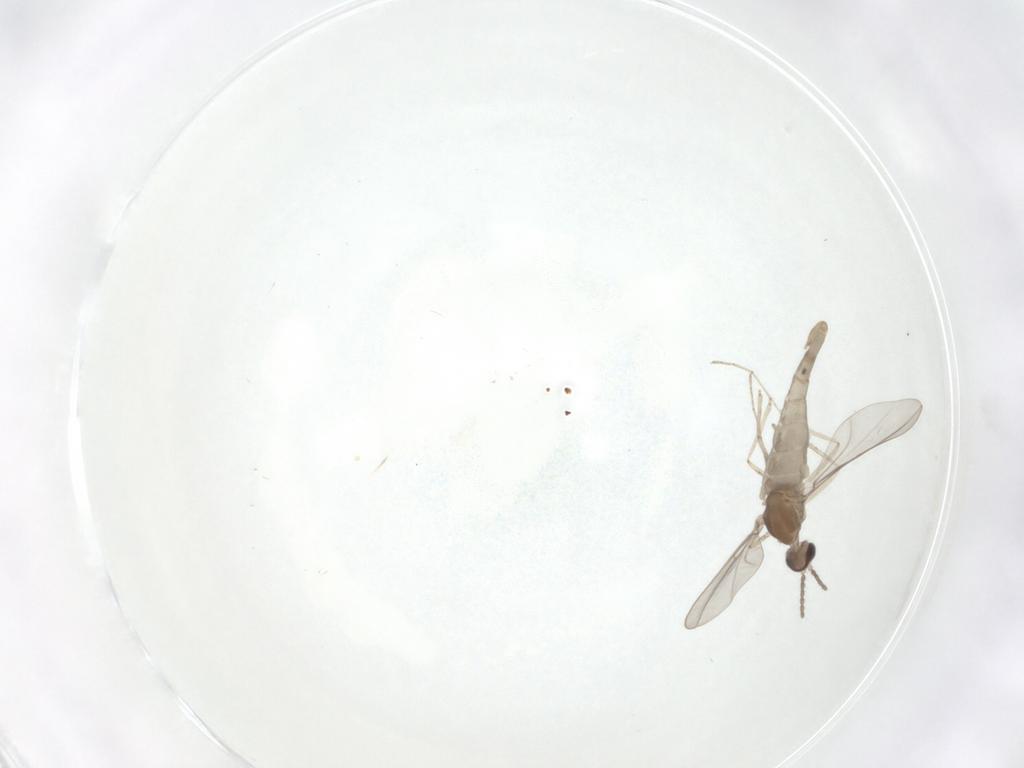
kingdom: Animalia
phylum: Arthropoda
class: Insecta
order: Diptera
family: Cecidomyiidae
